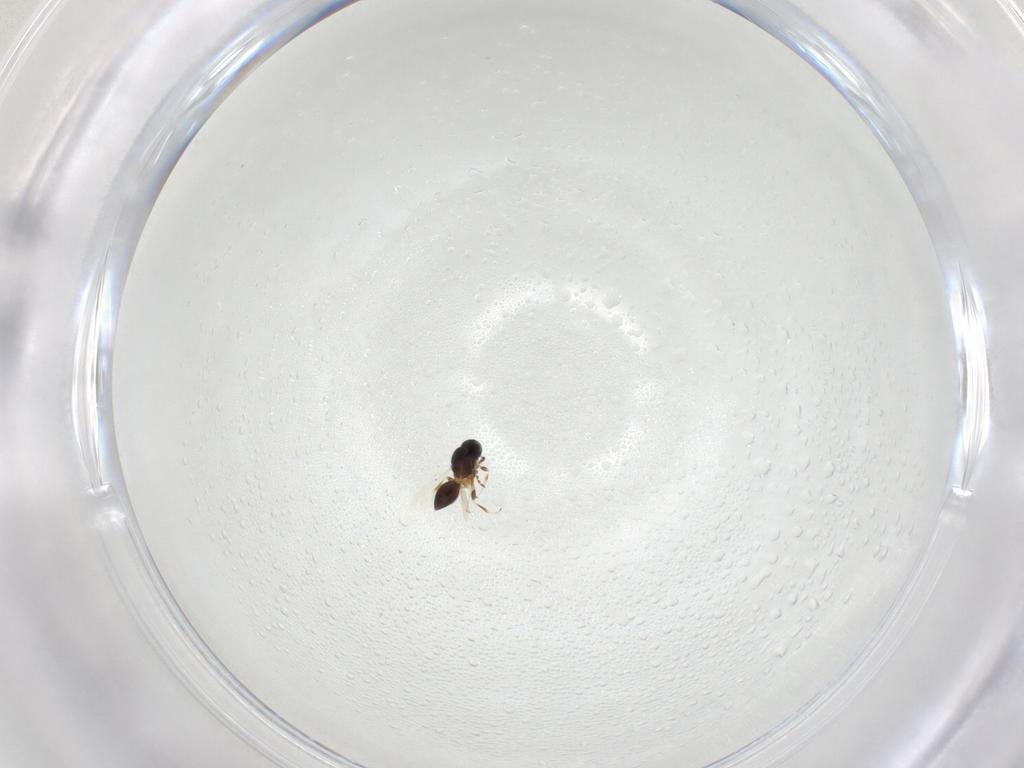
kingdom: Animalia
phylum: Arthropoda
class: Insecta
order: Hymenoptera
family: Platygastridae
